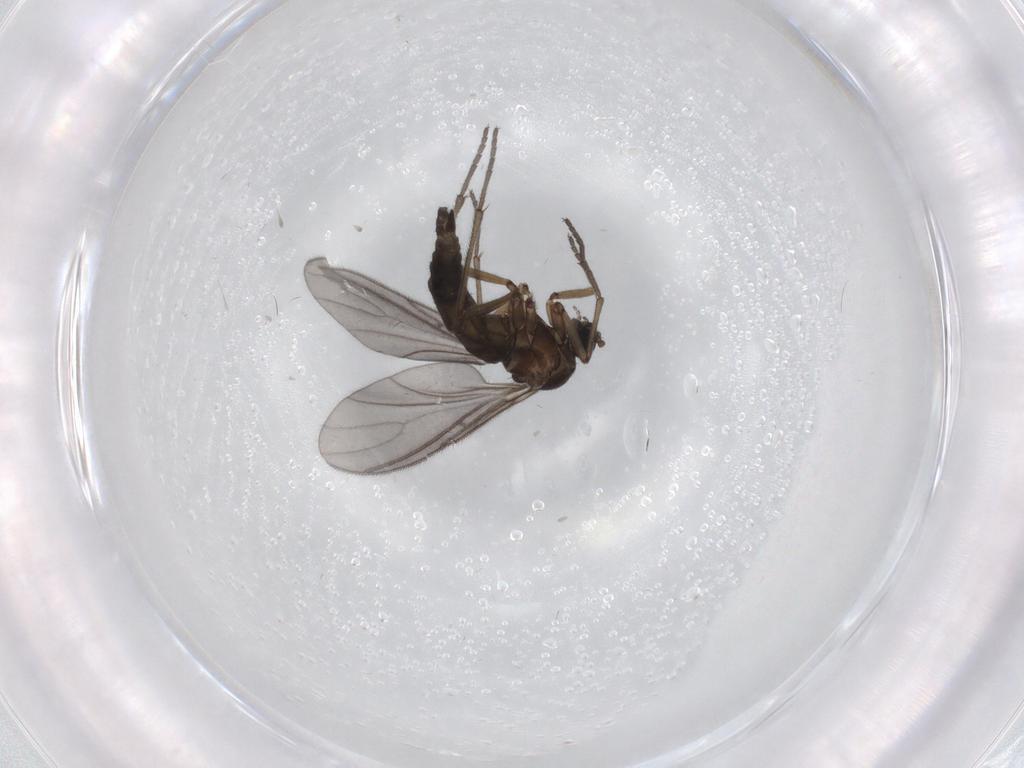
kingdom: Animalia
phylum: Arthropoda
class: Insecta
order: Diptera
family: Sciaridae
